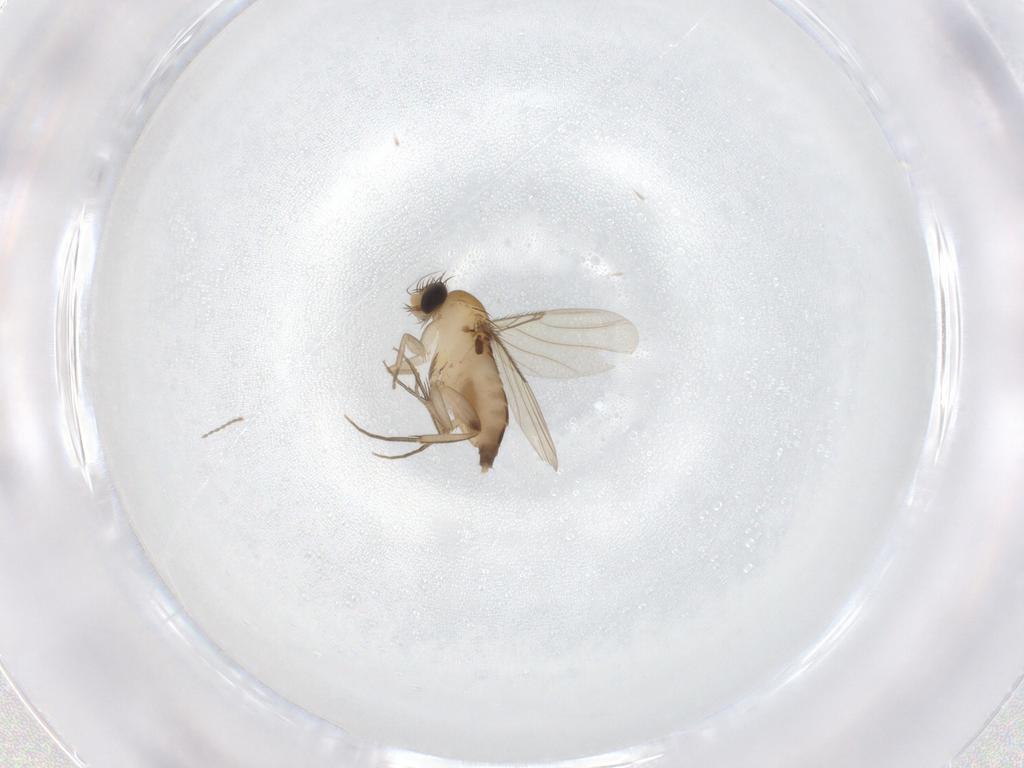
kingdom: Animalia
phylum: Arthropoda
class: Insecta
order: Diptera
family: Phoridae
